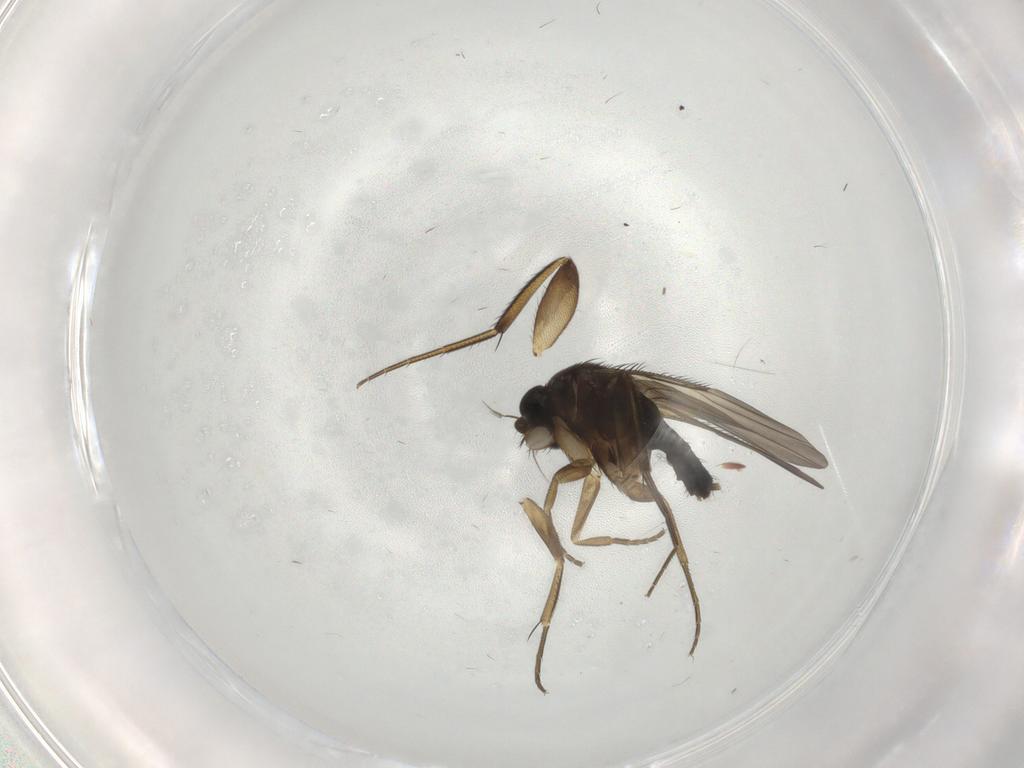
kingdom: Animalia
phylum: Arthropoda
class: Insecta
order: Diptera
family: Phoridae
